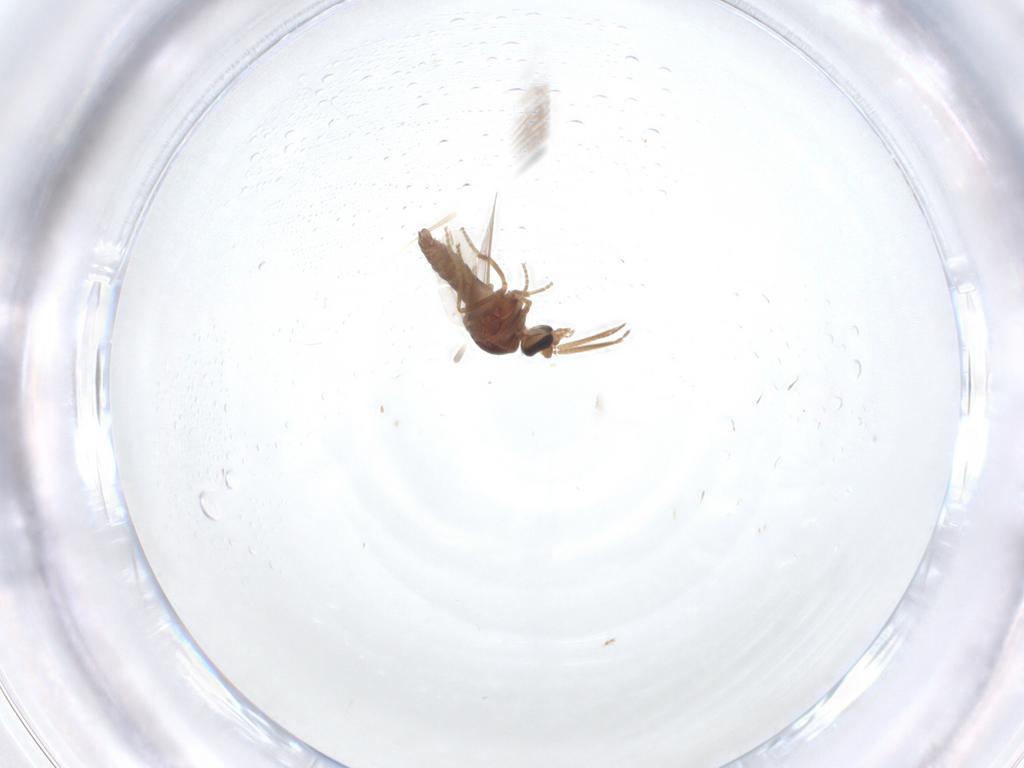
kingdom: Animalia
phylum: Arthropoda
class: Insecta
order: Diptera
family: Ceratopogonidae
